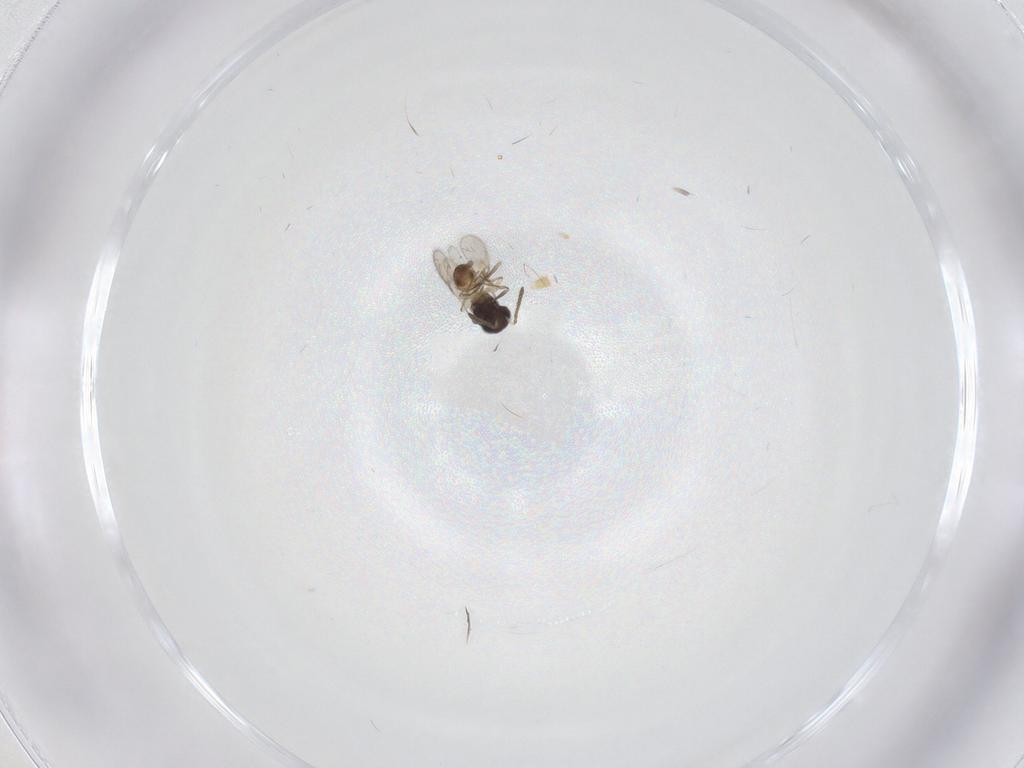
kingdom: Animalia
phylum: Arthropoda
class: Insecta
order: Hymenoptera
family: Scelionidae
